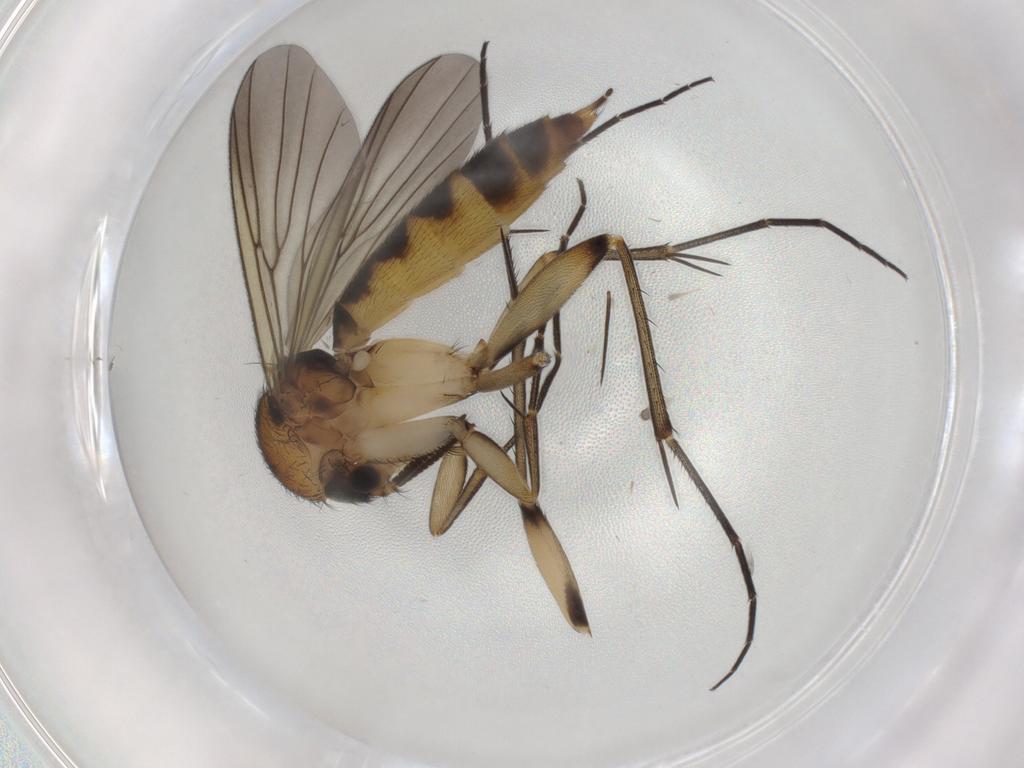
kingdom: Animalia
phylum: Arthropoda
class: Insecta
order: Diptera
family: Mycetophilidae
